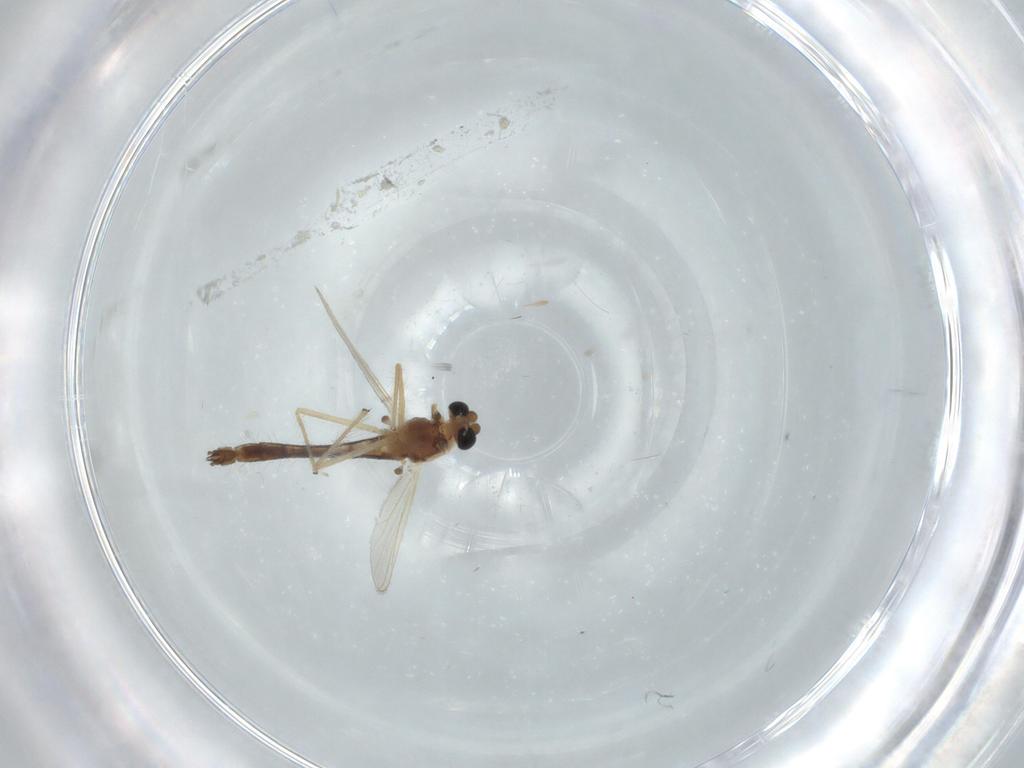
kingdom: Animalia
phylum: Arthropoda
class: Insecta
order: Diptera
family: Chironomidae
